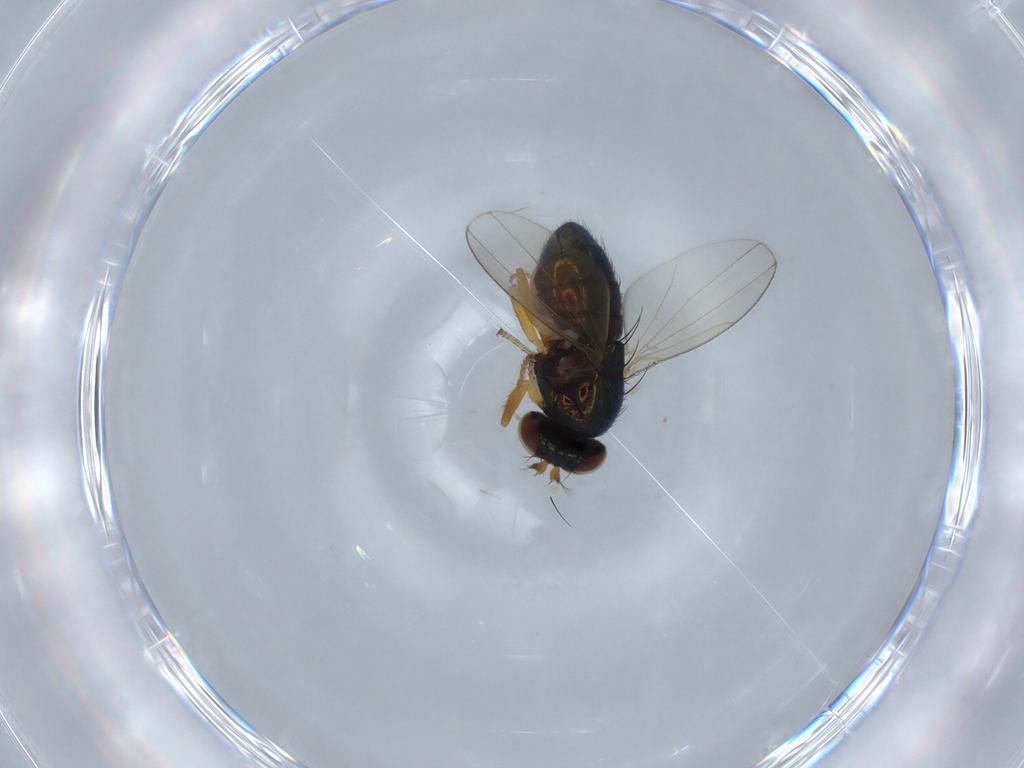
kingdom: Animalia
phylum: Arthropoda
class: Insecta
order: Diptera
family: Ephydridae
